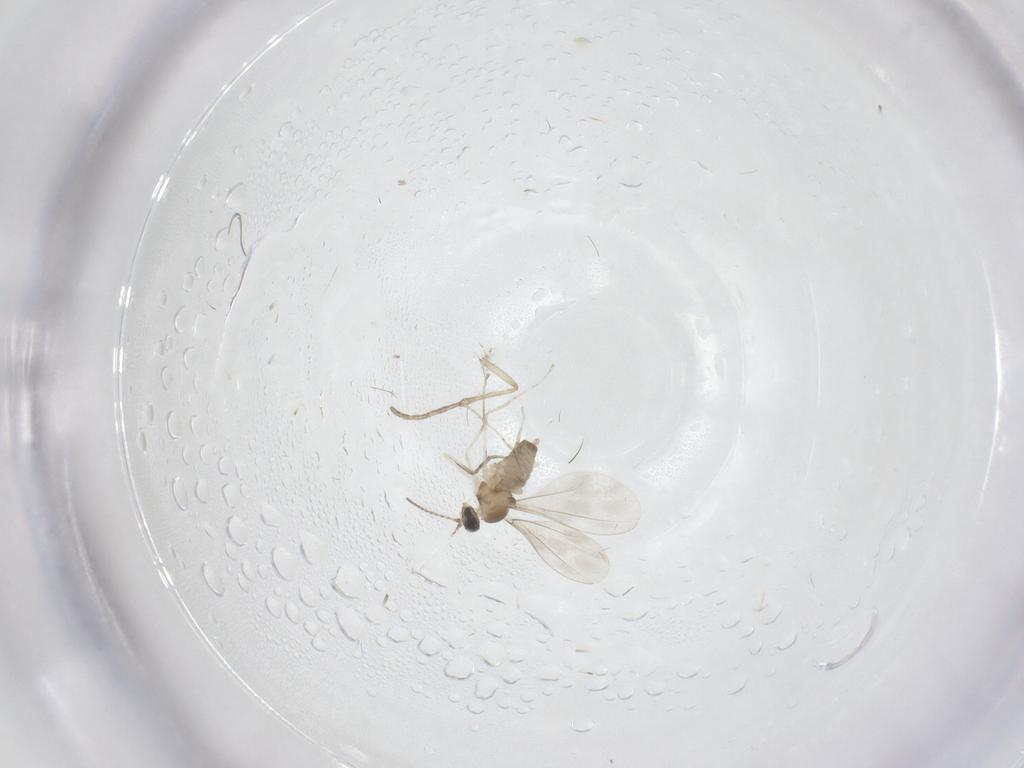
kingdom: Animalia
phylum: Arthropoda
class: Insecta
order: Diptera
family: Cecidomyiidae
